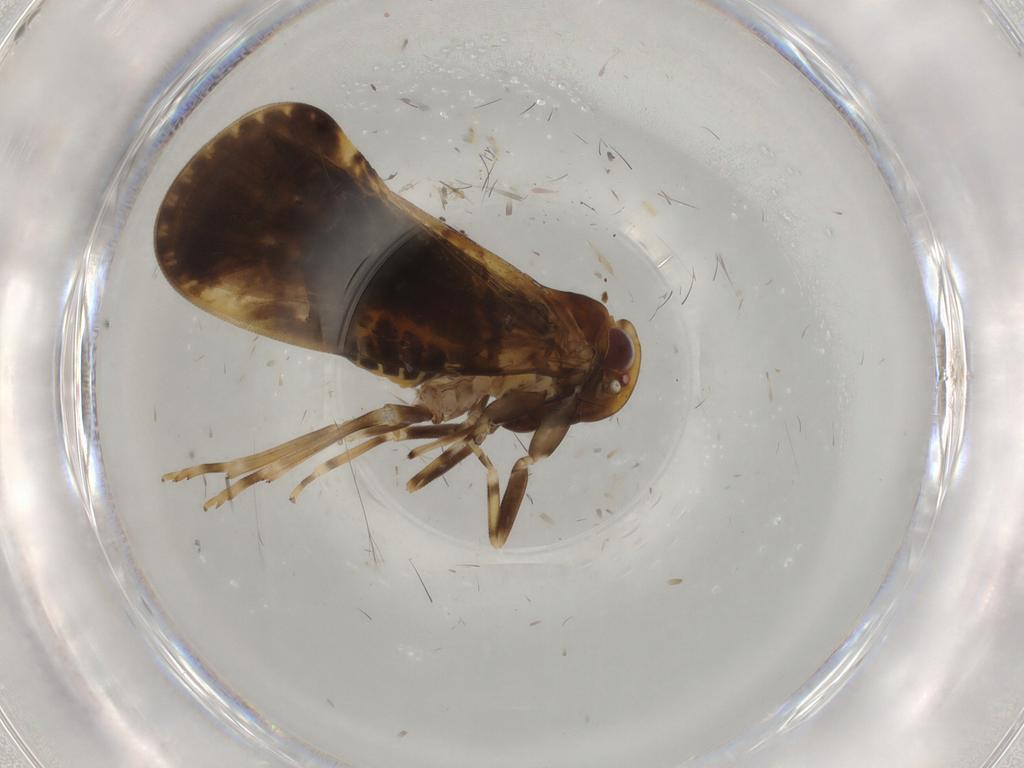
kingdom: Animalia
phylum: Arthropoda
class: Insecta
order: Hemiptera
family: Cixiidae
